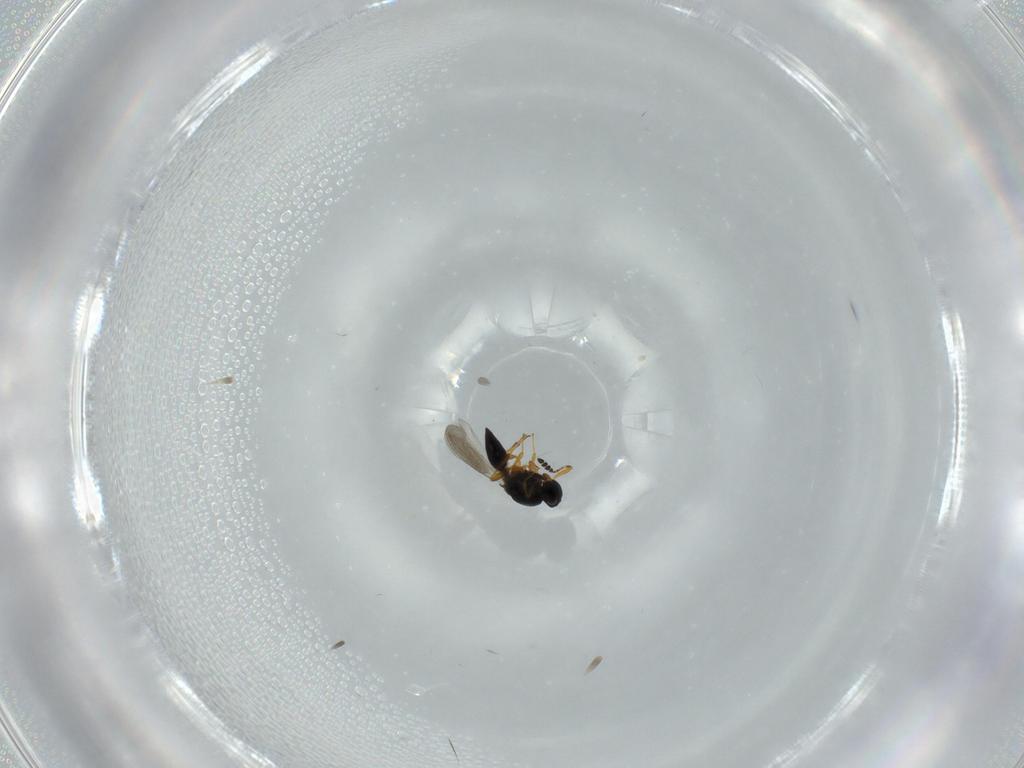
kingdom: Animalia
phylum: Arthropoda
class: Insecta
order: Hymenoptera
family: Platygastridae
